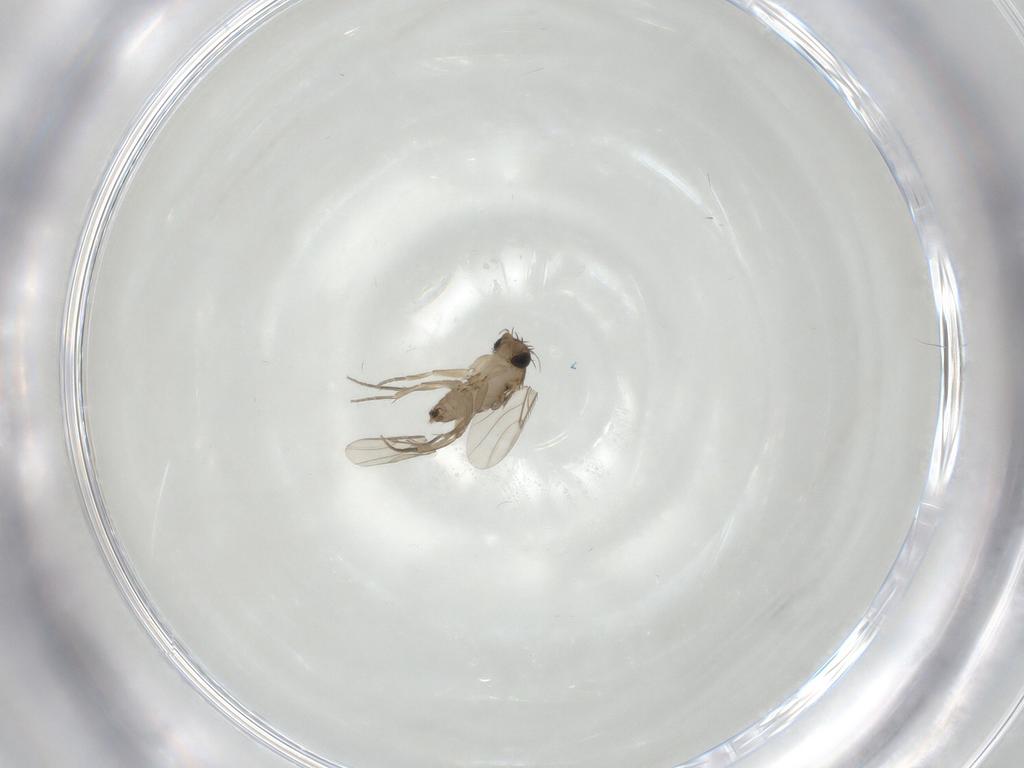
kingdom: Animalia
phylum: Arthropoda
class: Insecta
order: Diptera
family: Phoridae
